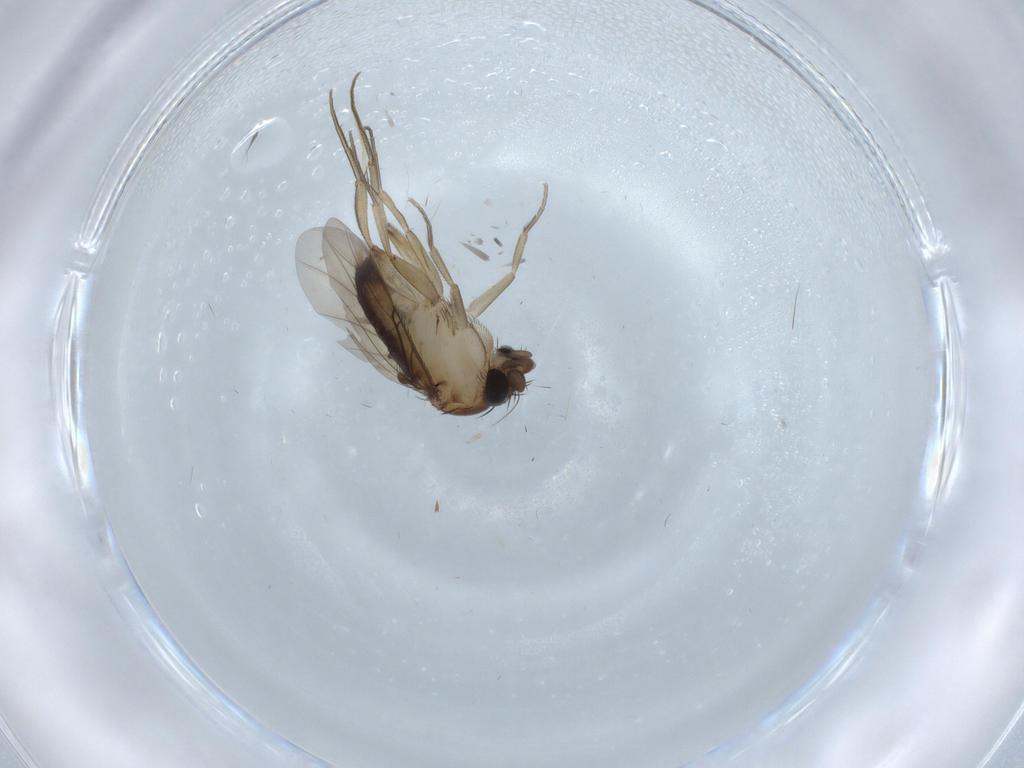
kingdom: Animalia
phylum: Arthropoda
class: Insecta
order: Diptera
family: Phoridae
